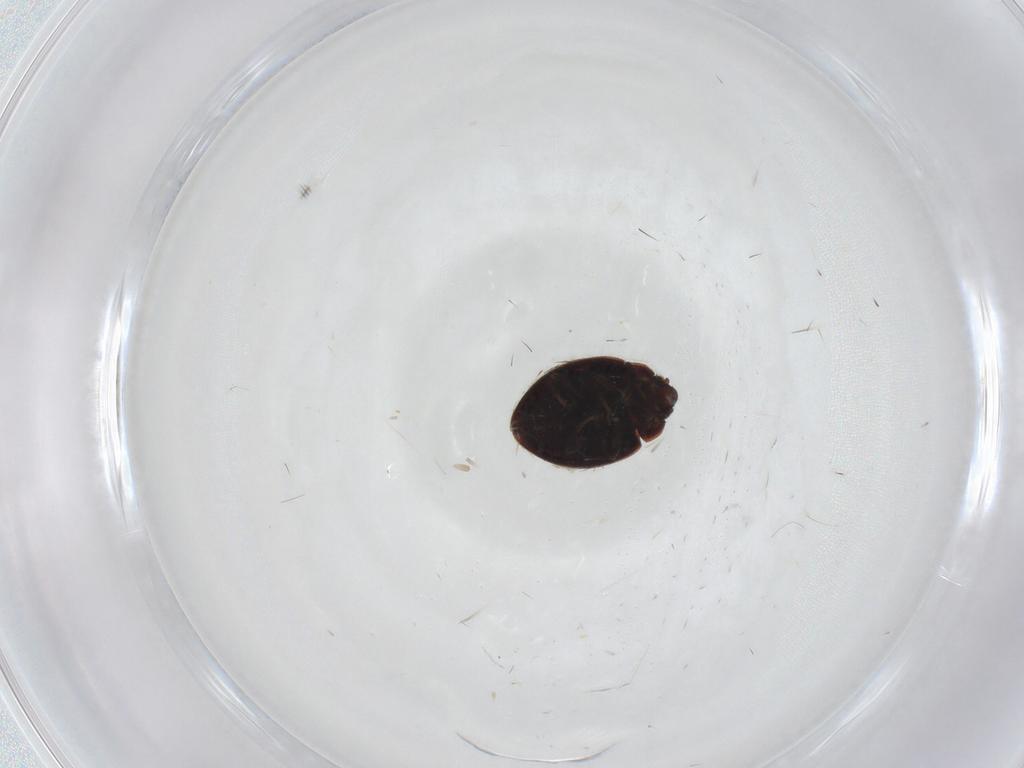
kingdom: Animalia
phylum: Arthropoda
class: Insecta
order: Coleoptera
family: Coccinellidae
